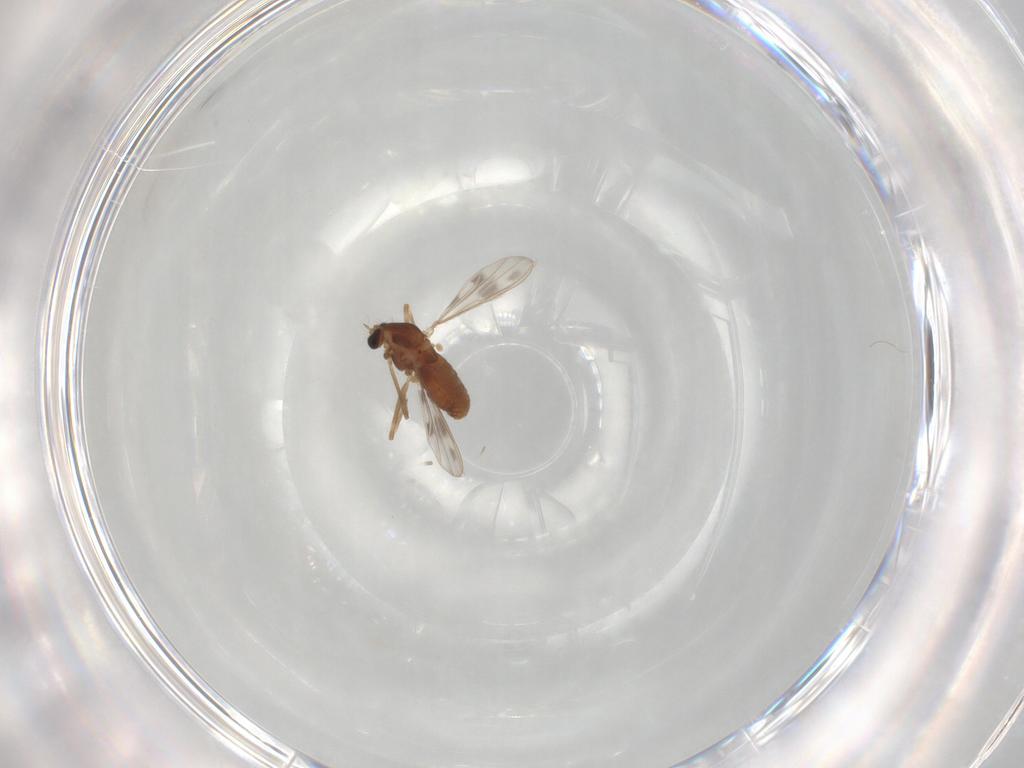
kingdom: Animalia
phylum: Arthropoda
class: Insecta
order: Diptera
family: Chironomidae
